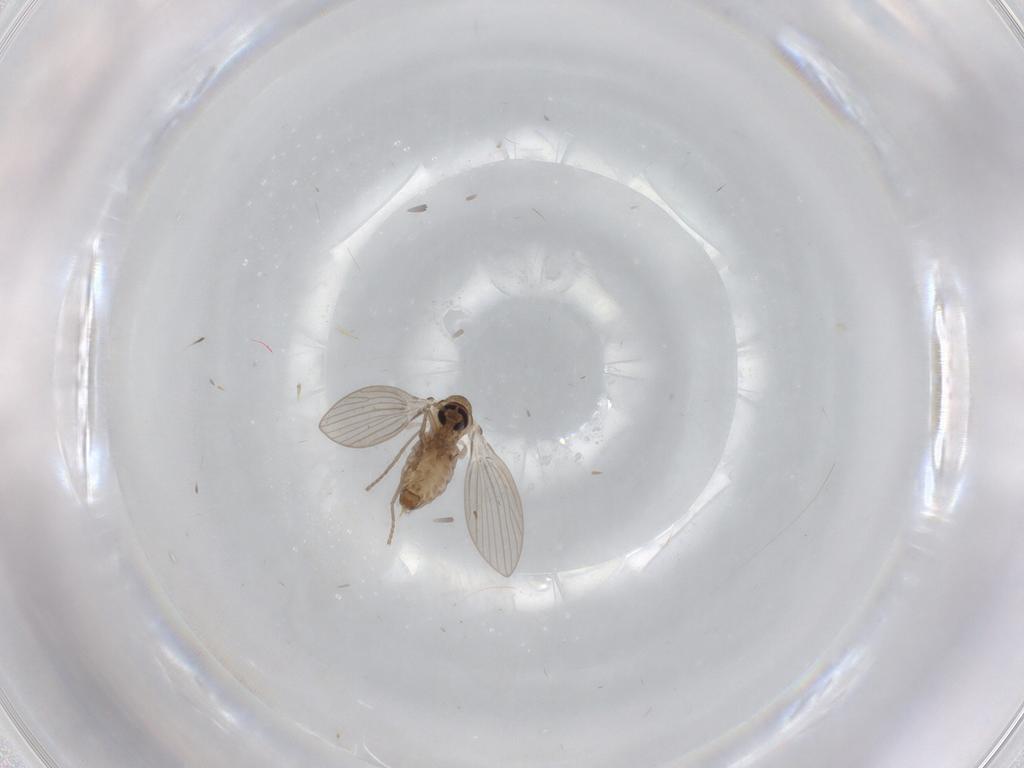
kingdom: Animalia
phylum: Arthropoda
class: Insecta
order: Diptera
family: Psychodidae
